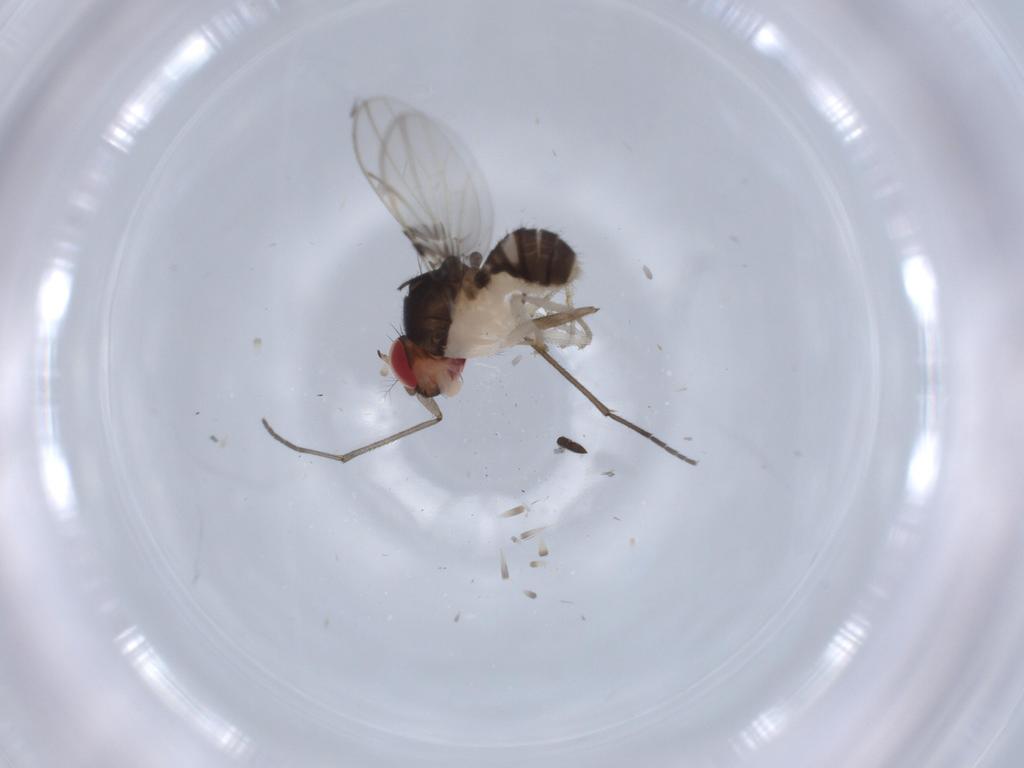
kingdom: Animalia
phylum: Arthropoda
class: Insecta
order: Diptera
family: Drosophilidae
